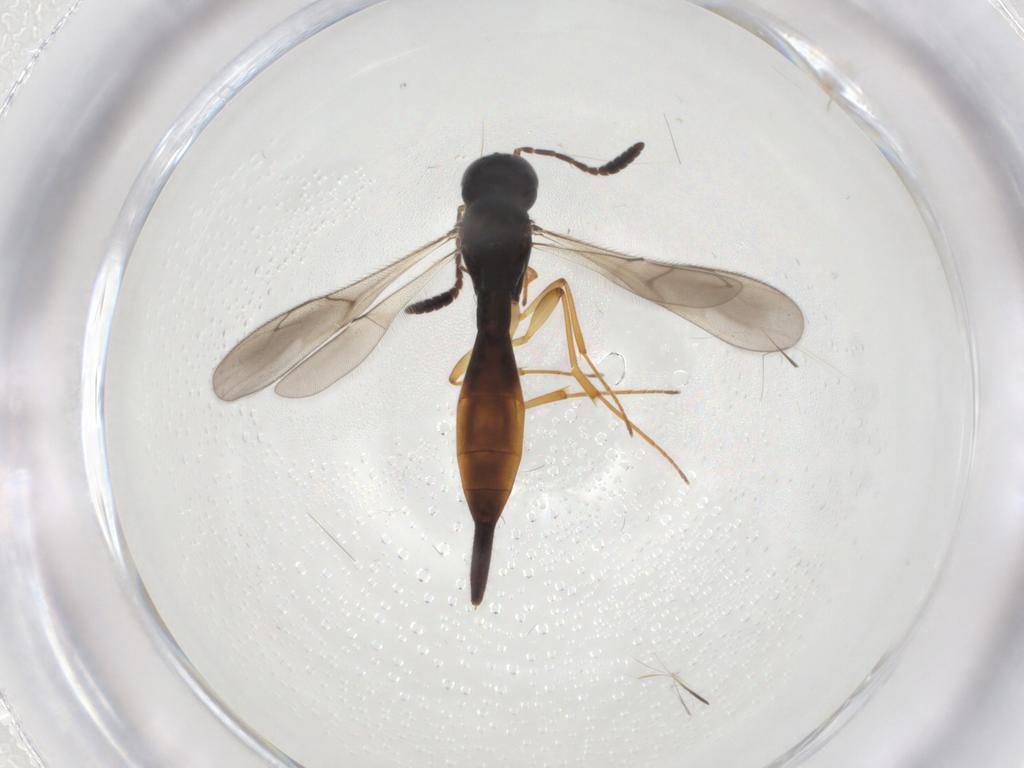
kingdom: Animalia
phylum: Arthropoda
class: Insecta
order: Hymenoptera
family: Scelionidae
